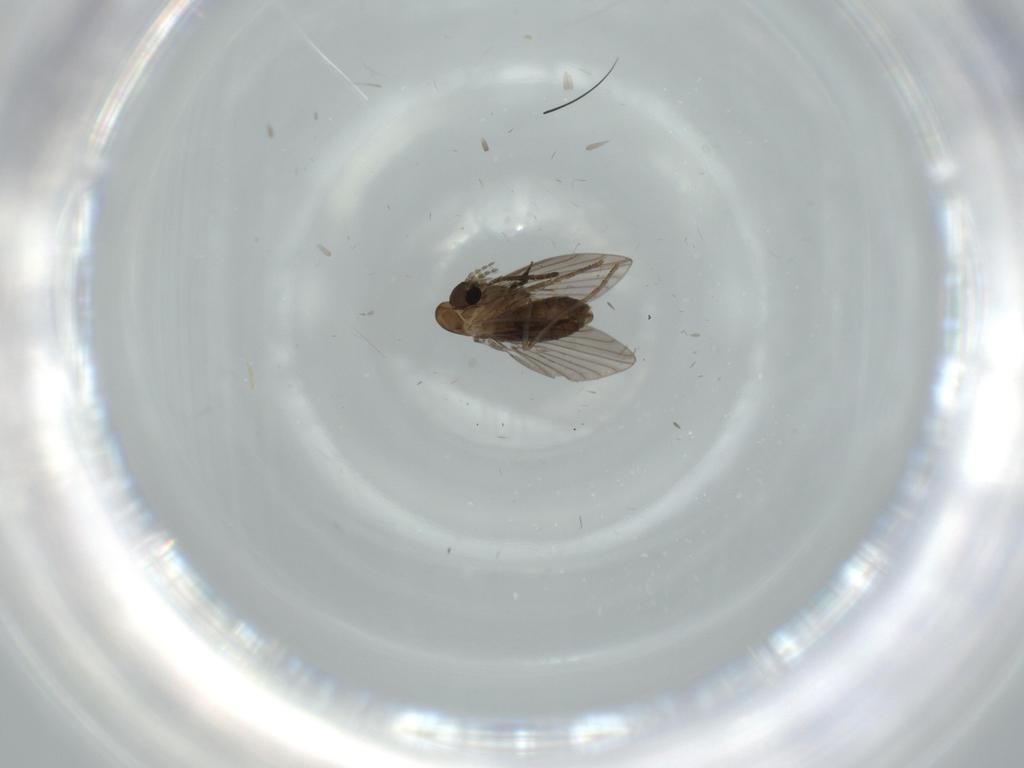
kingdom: Animalia
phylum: Arthropoda
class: Insecta
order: Diptera
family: Psychodidae
